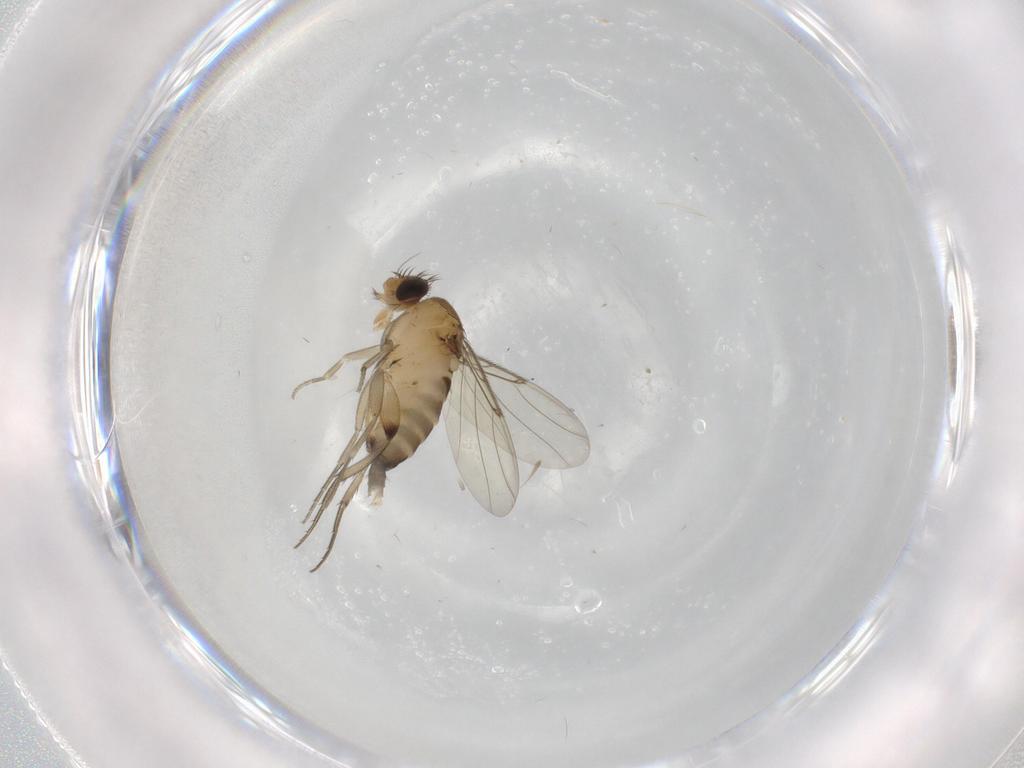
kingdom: Animalia
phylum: Arthropoda
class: Insecta
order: Diptera
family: Phoridae
